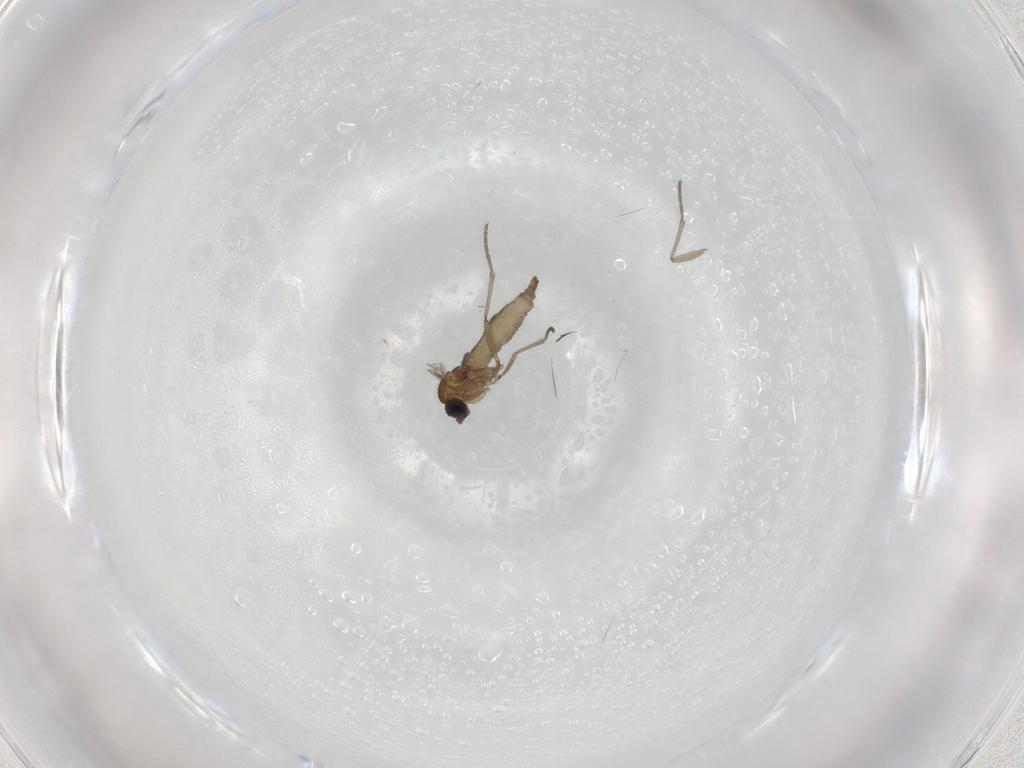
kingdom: Animalia
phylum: Arthropoda
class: Insecta
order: Diptera
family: Sciaridae
